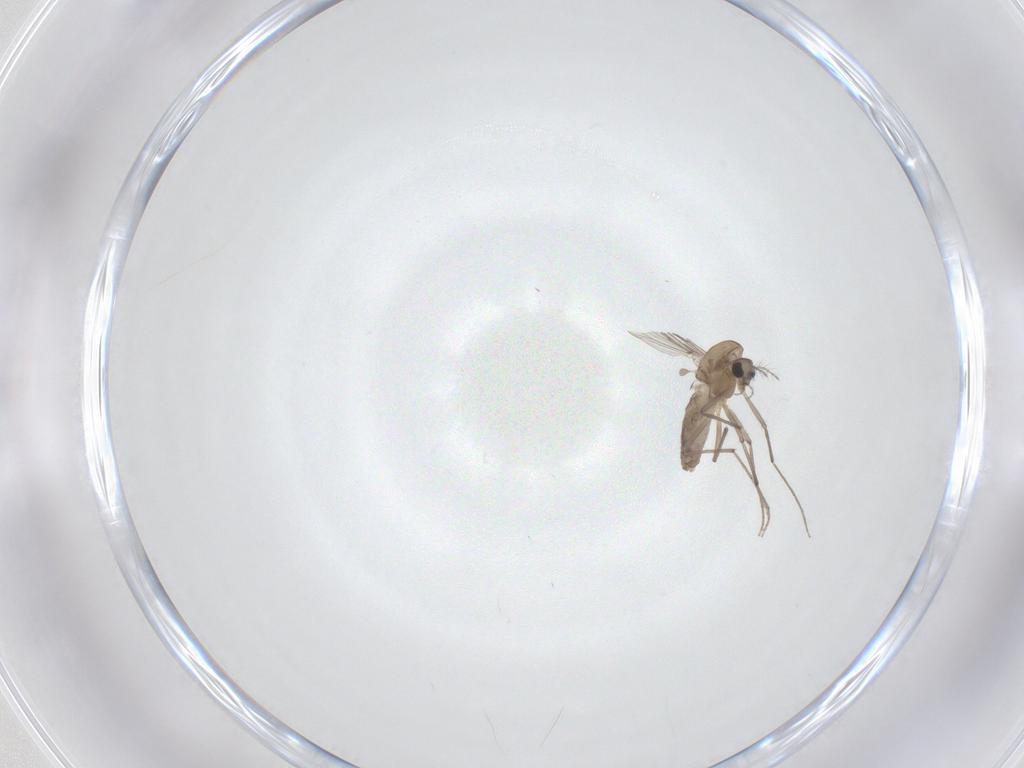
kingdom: Animalia
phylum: Arthropoda
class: Insecta
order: Diptera
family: Chironomidae
